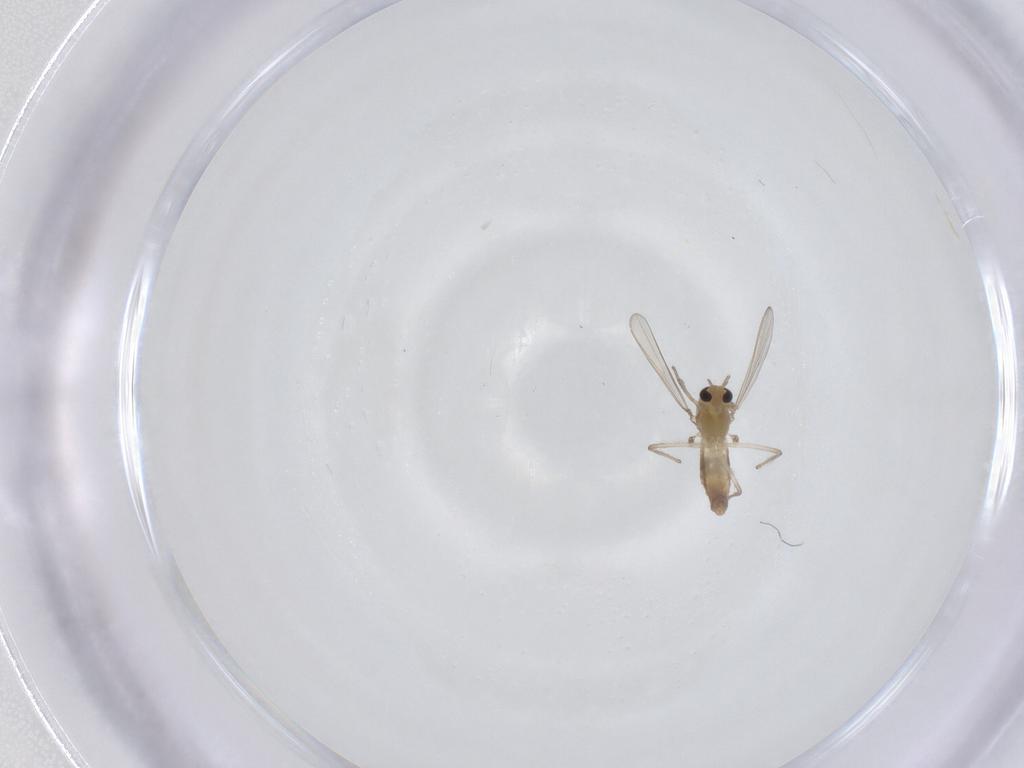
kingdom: Animalia
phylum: Arthropoda
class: Insecta
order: Diptera
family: Chironomidae
